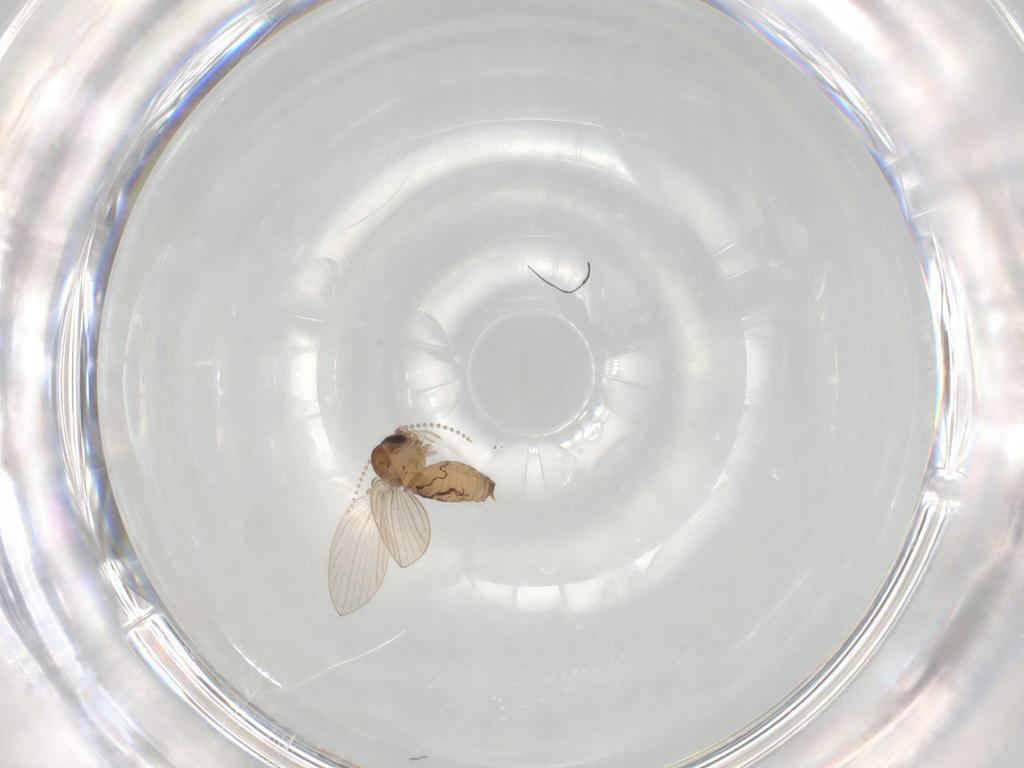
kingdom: Animalia
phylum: Arthropoda
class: Insecta
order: Diptera
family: Psychodidae
